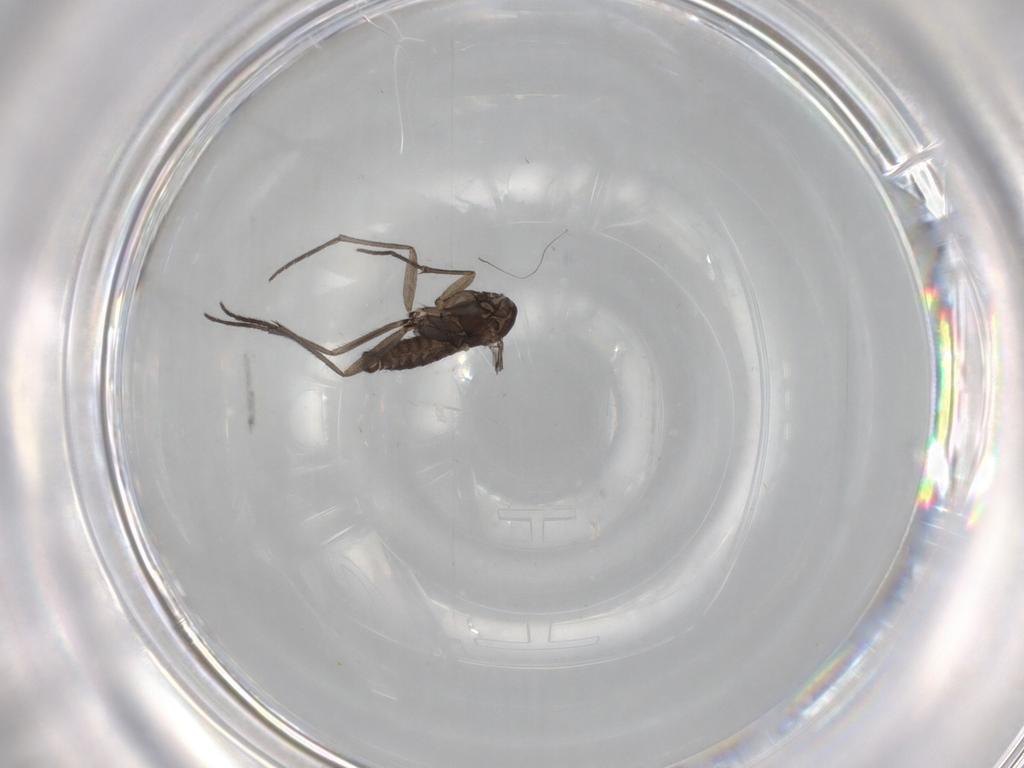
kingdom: Animalia
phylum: Arthropoda
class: Insecta
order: Diptera
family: Sciaridae
